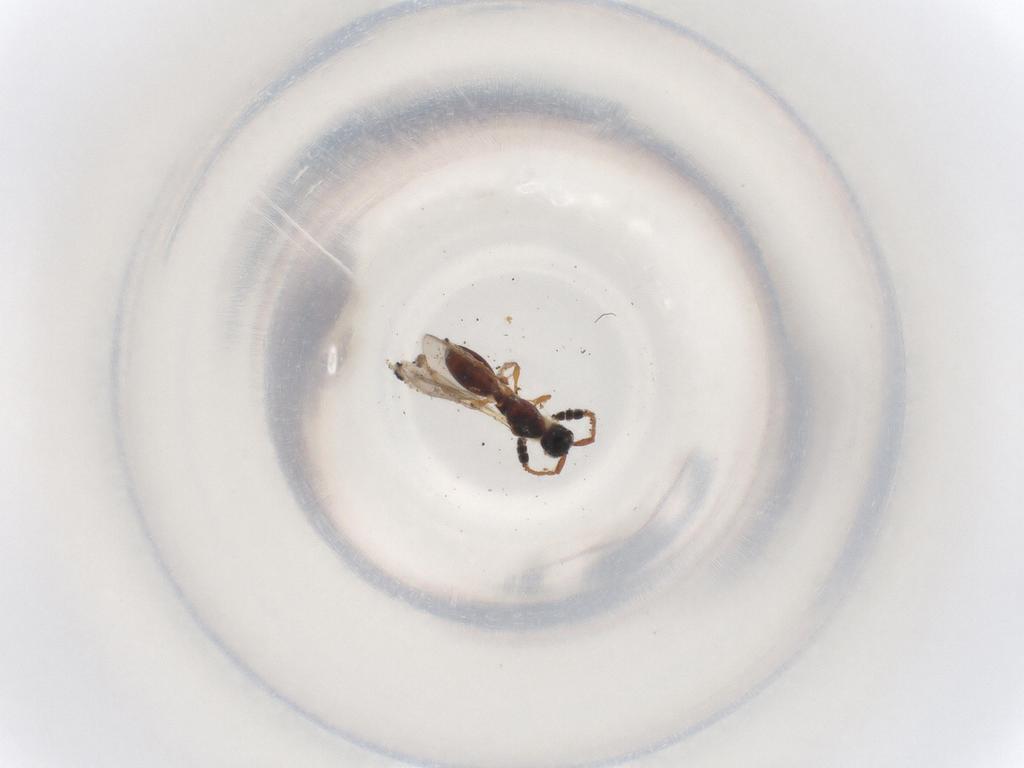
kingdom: Animalia
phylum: Arthropoda
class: Insecta
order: Hymenoptera
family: Diapriidae
